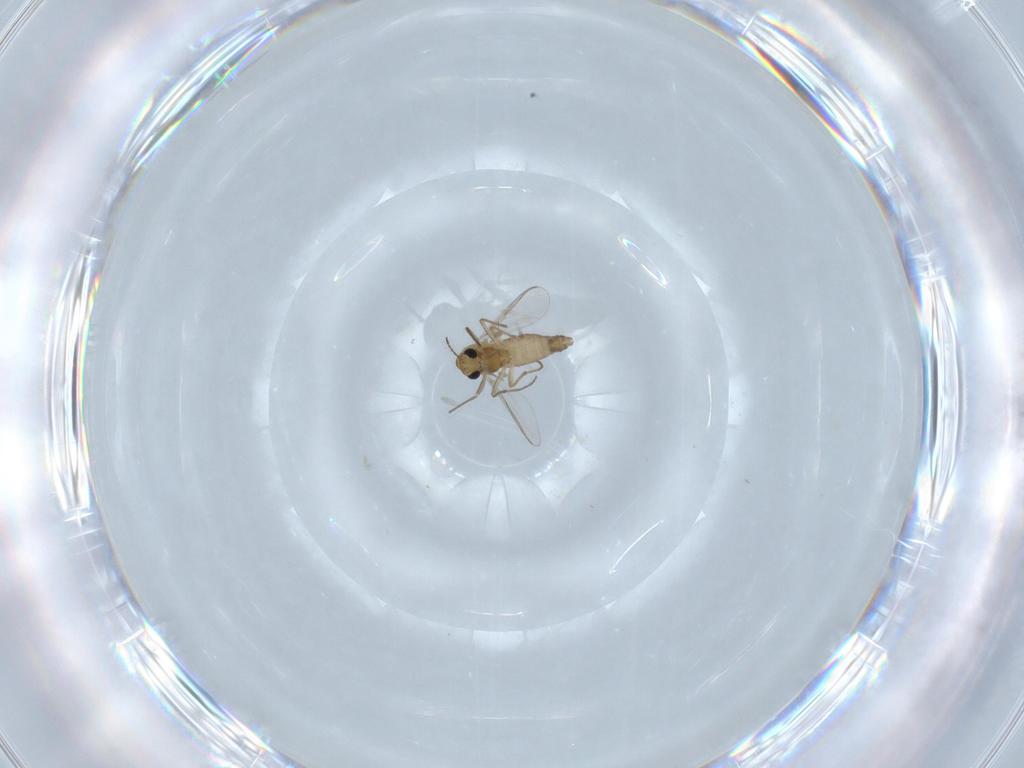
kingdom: Animalia
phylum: Arthropoda
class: Insecta
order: Diptera
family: Chironomidae
